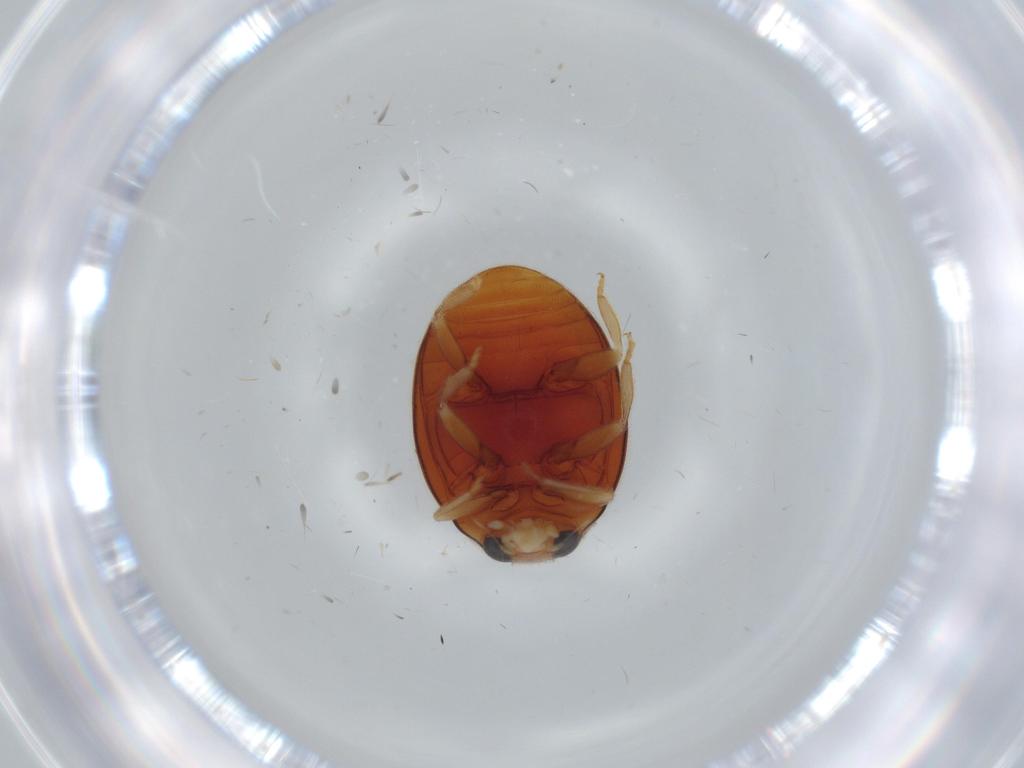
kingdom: Animalia
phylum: Arthropoda
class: Insecta
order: Coleoptera
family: Coccinellidae
